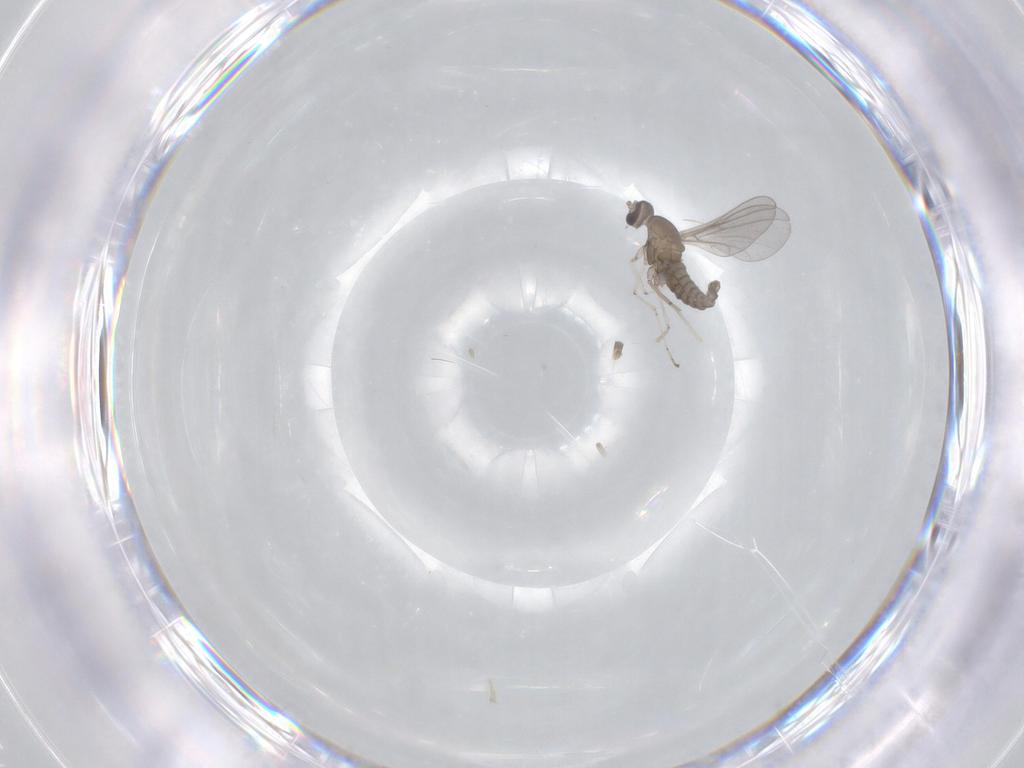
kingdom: Animalia
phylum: Arthropoda
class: Insecta
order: Diptera
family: Cecidomyiidae
